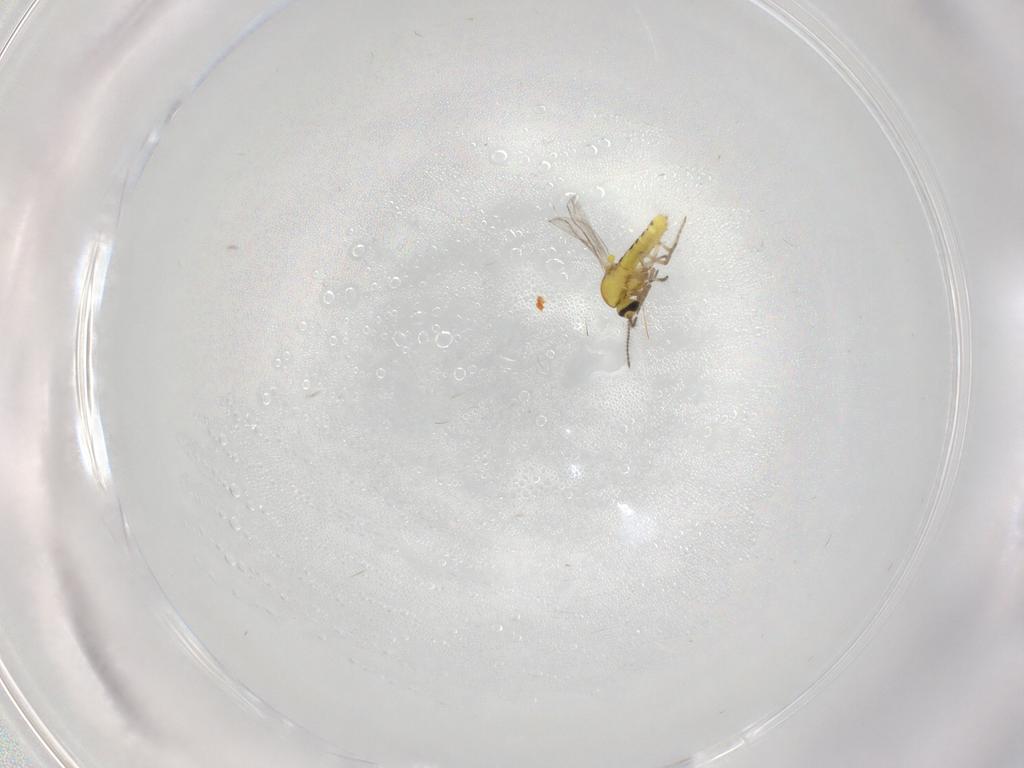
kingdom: Animalia
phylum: Arthropoda
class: Insecta
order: Diptera
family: Ceratopogonidae
